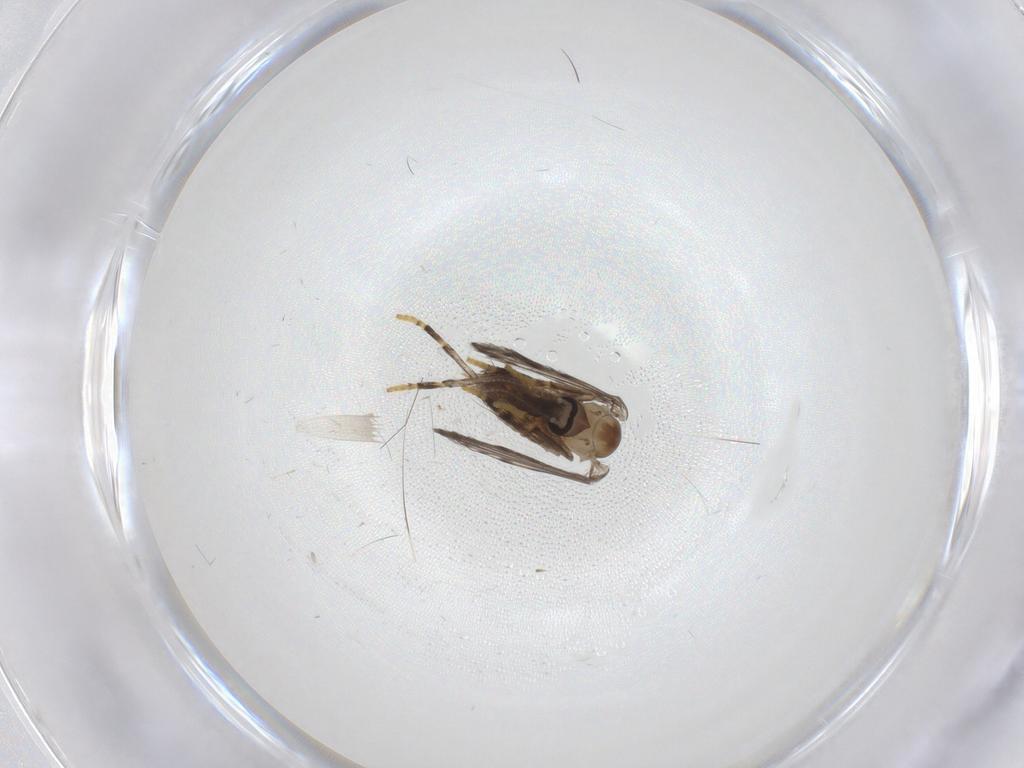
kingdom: Animalia
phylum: Arthropoda
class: Insecta
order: Diptera
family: Psychodidae
